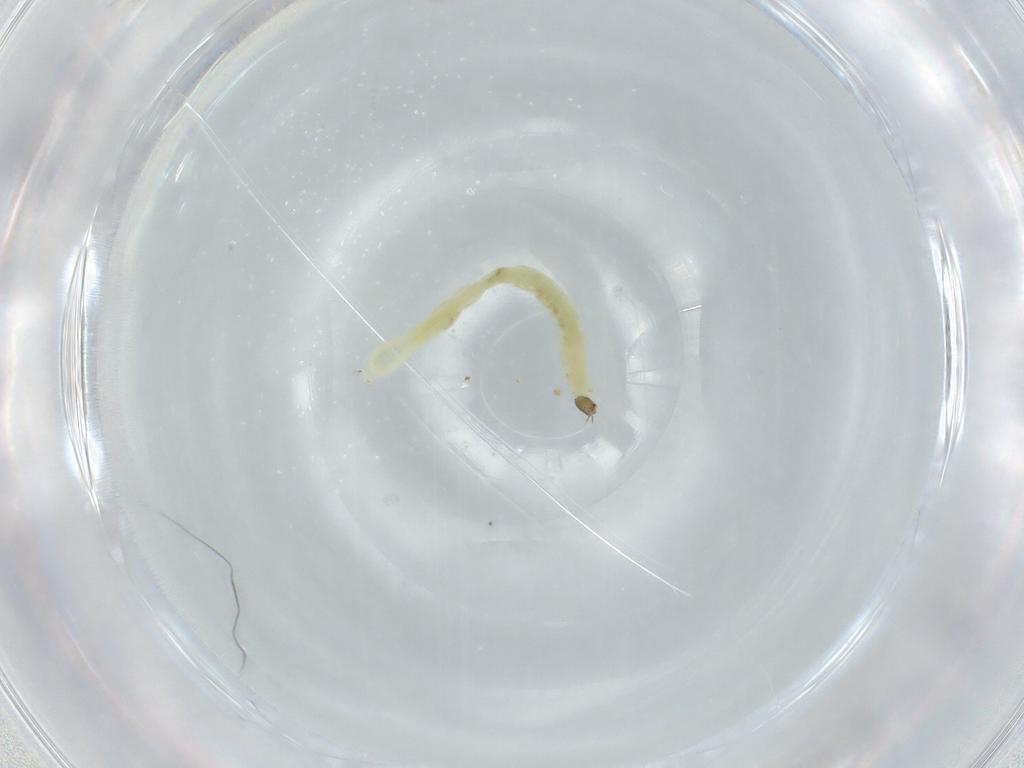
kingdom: Animalia
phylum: Arthropoda
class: Insecta
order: Diptera
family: Chironomidae
